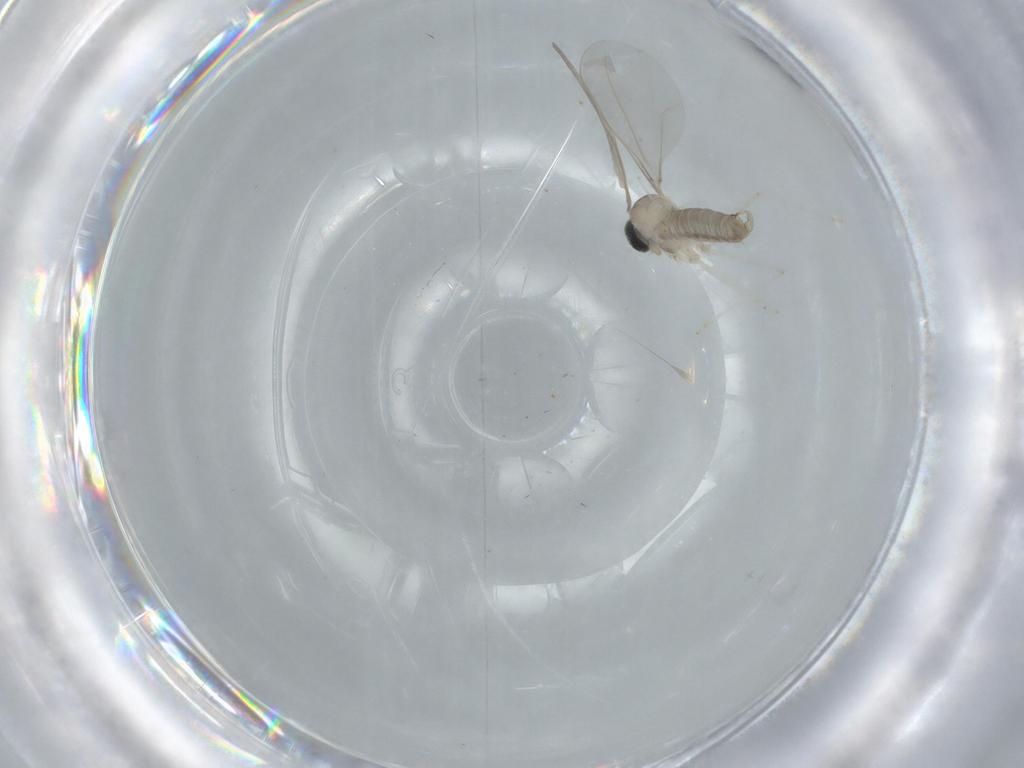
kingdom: Animalia
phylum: Arthropoda
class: Insecta
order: Diptera
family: Cecidomyiidae
